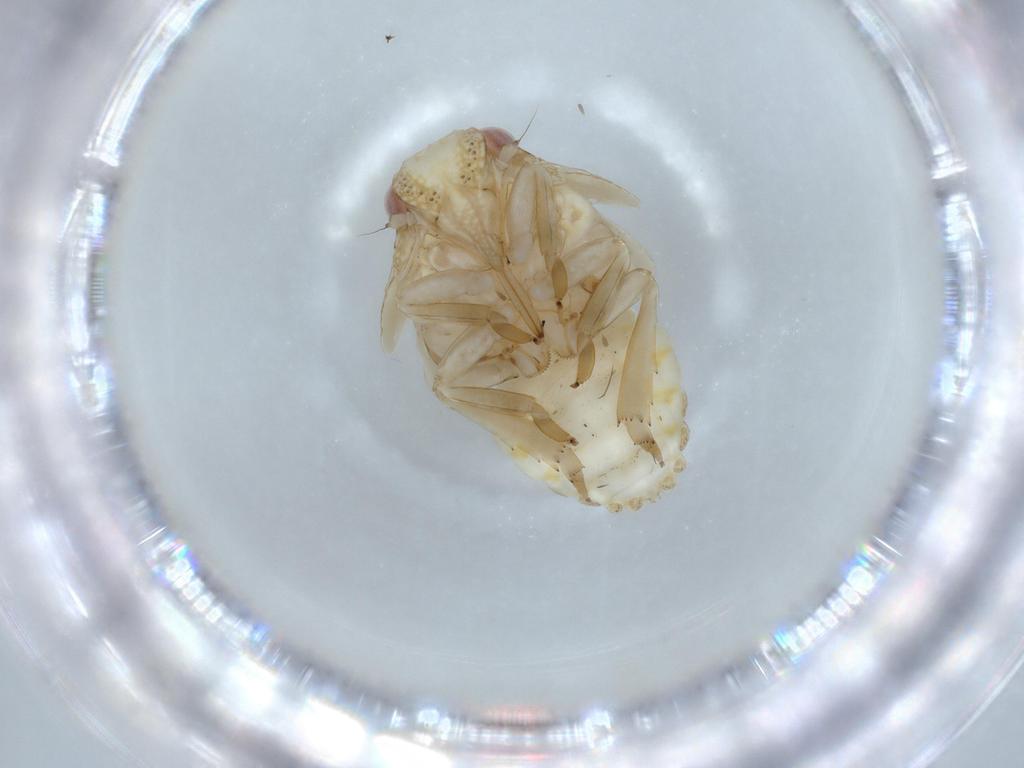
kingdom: Animalia
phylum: Arthropoda
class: Insecta
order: Hemiptera
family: Acanaloniidae
